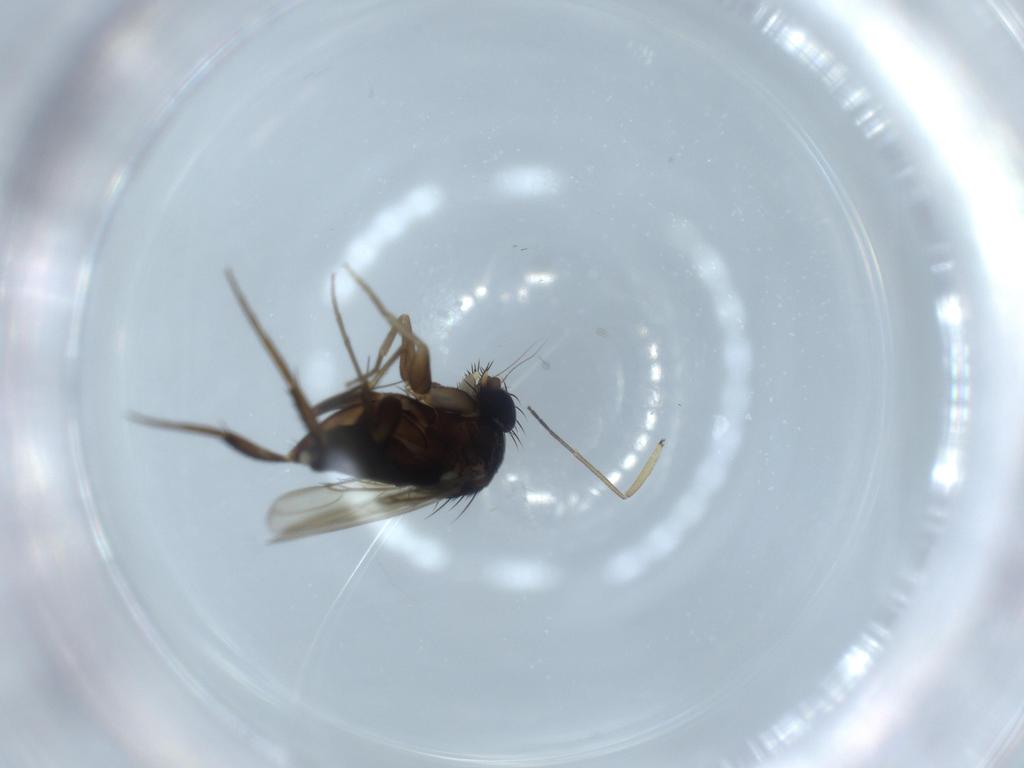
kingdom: Animalia
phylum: Arthropoda
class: Insecta
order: Diptera
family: Phoridae
